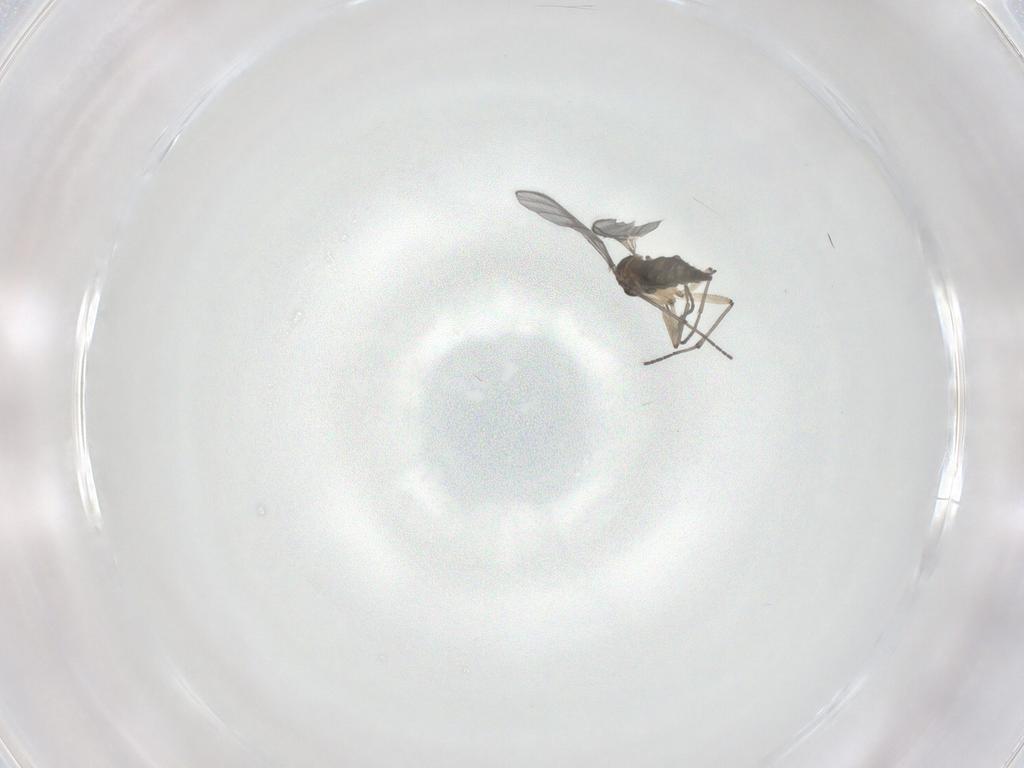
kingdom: Animalia
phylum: Arthropoda
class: Insecta
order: Diptera
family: Sciaridae
